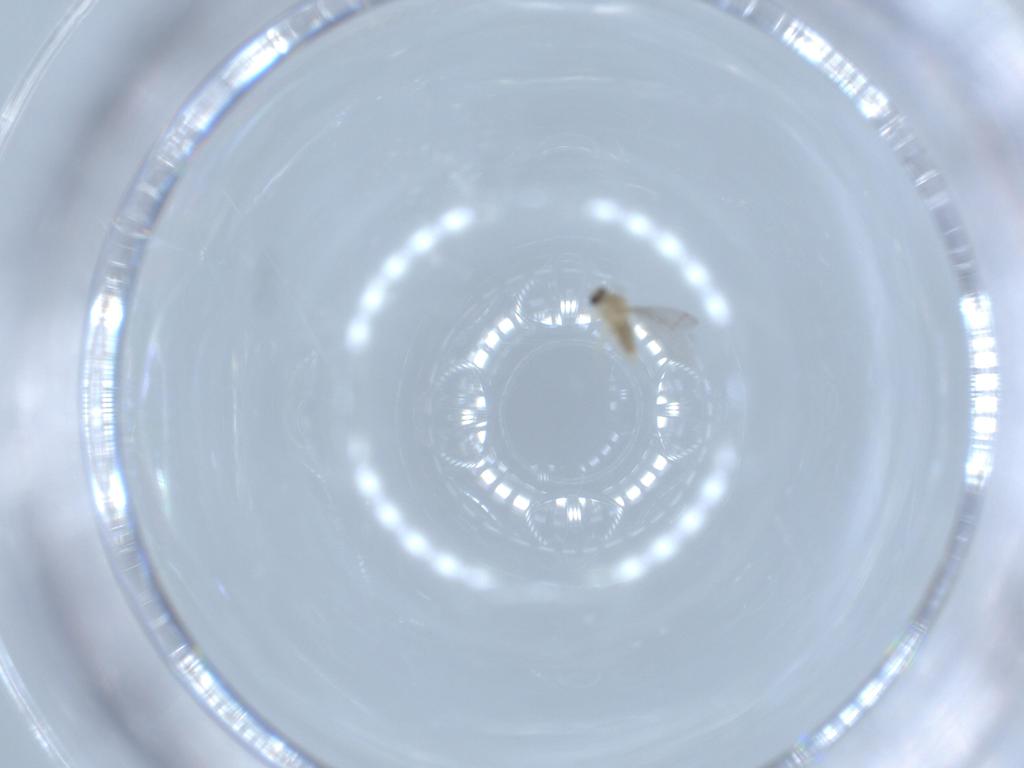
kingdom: Animalia
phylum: Arthropoda
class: Insecta
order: Diptera
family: Cecidomyiidae
